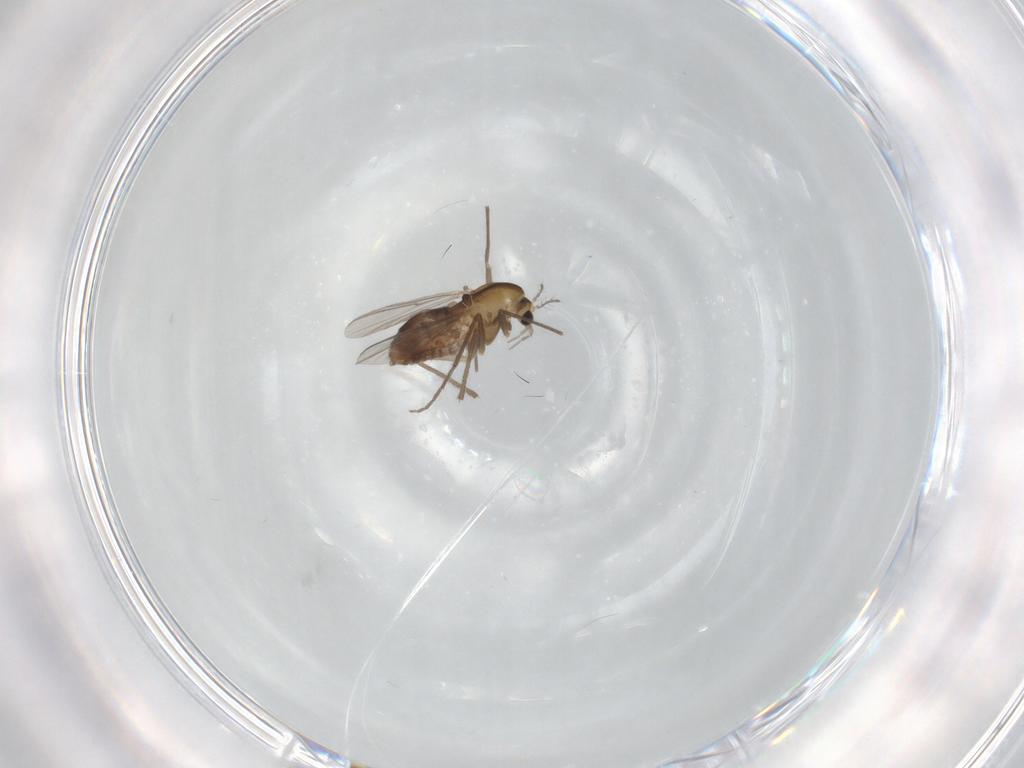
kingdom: Animalia
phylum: Arthropoda
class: Insecta
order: Diptera
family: Chironomidae
